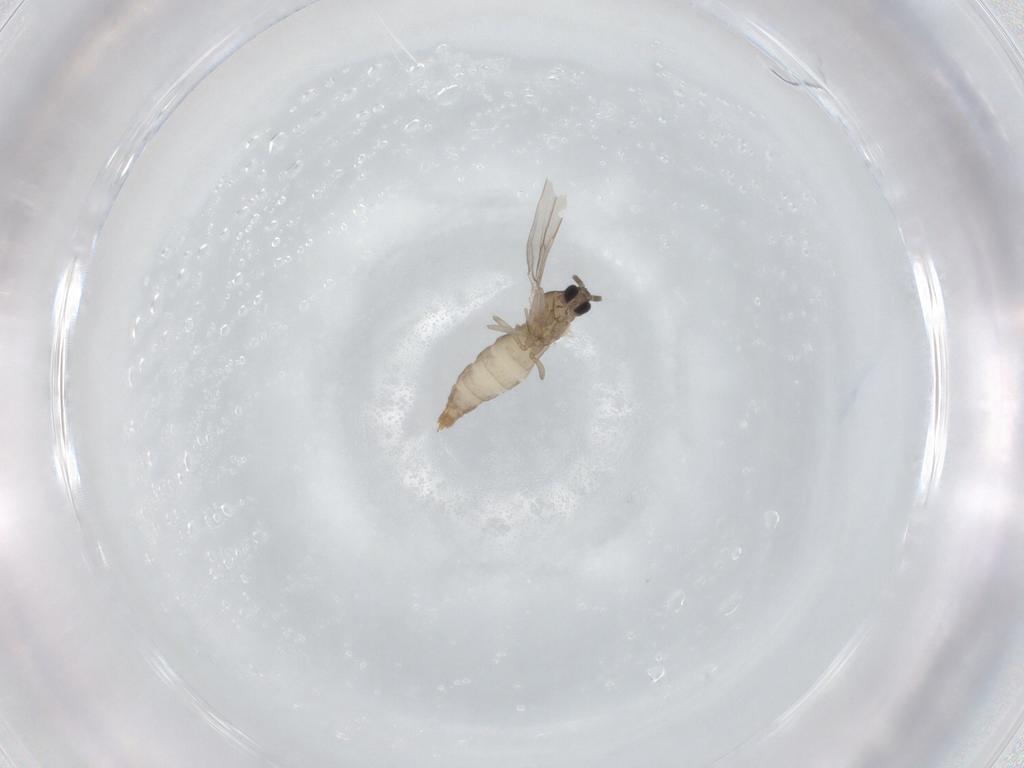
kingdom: Animalia
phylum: Arthropoda
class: Insecta
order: Diptera
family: Cecidomyiidae
